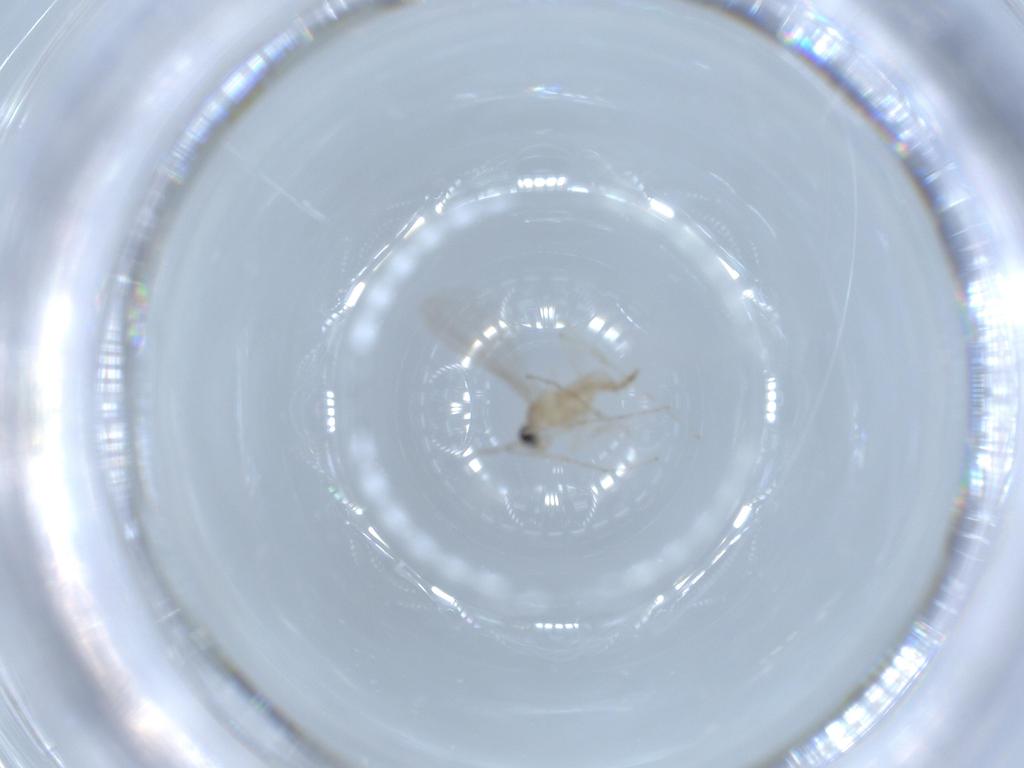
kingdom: Animalia
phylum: Arthropoda
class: Insecta
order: Diptera
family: Cecidomyiidae
